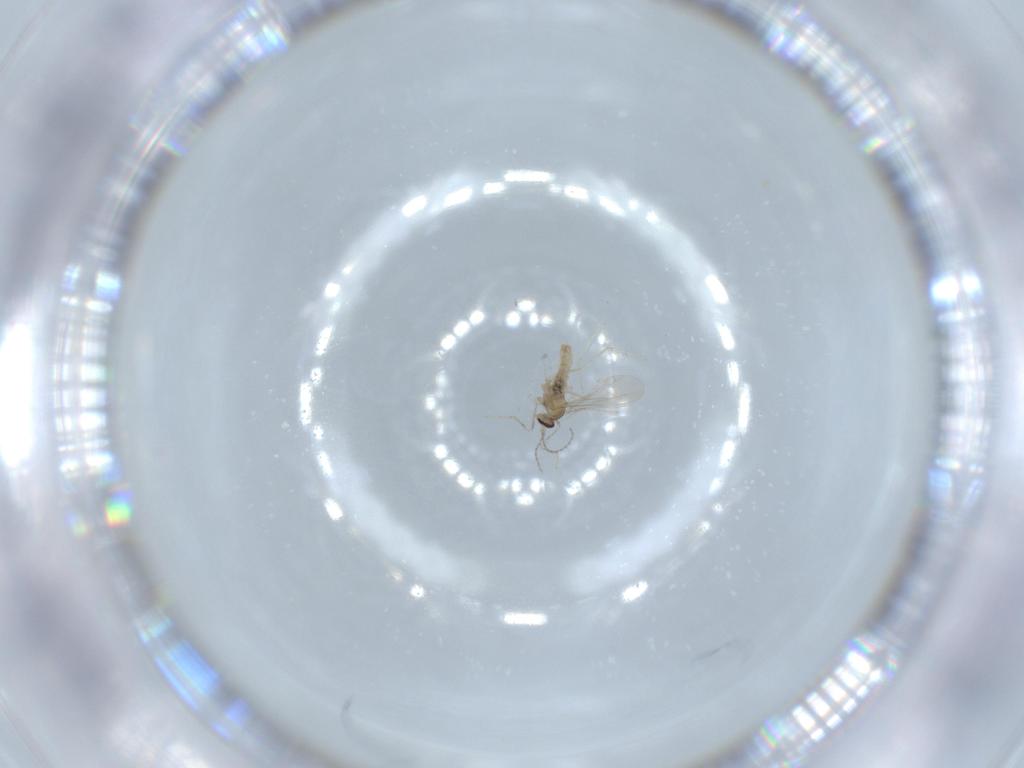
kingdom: Animalia
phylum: Arthropoda
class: Insecta
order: Diptera
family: Cecidomyiidae
